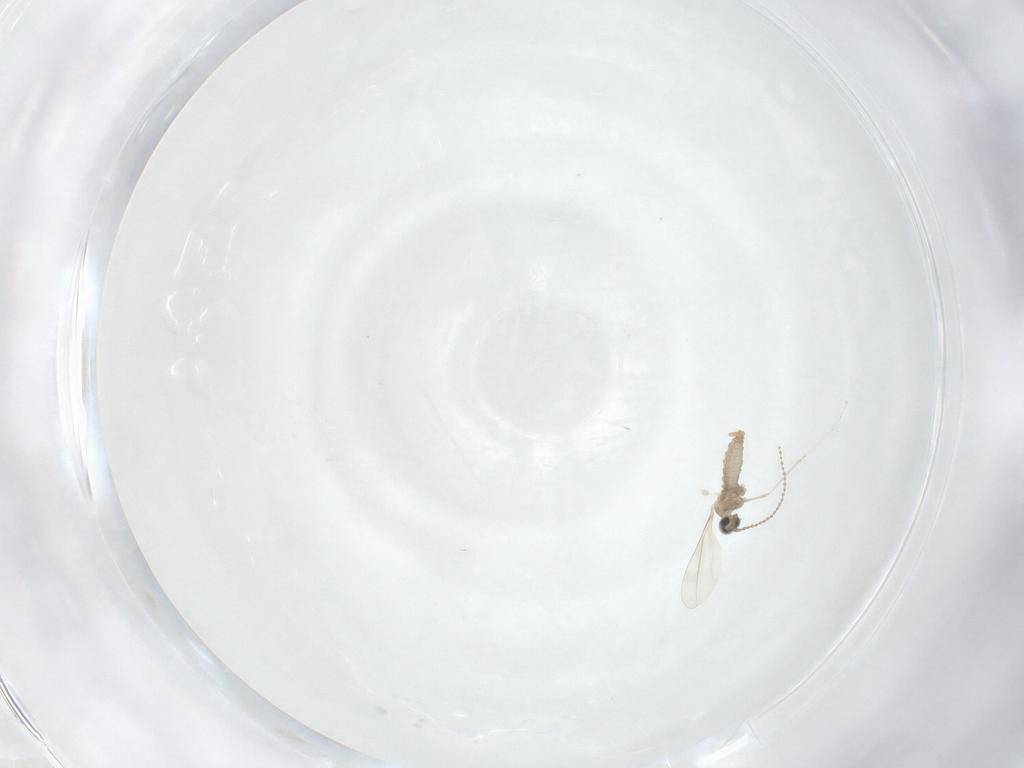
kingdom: Animalia
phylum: Arthropoda
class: Insecta
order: Diptera
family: Cecidomyiidae
